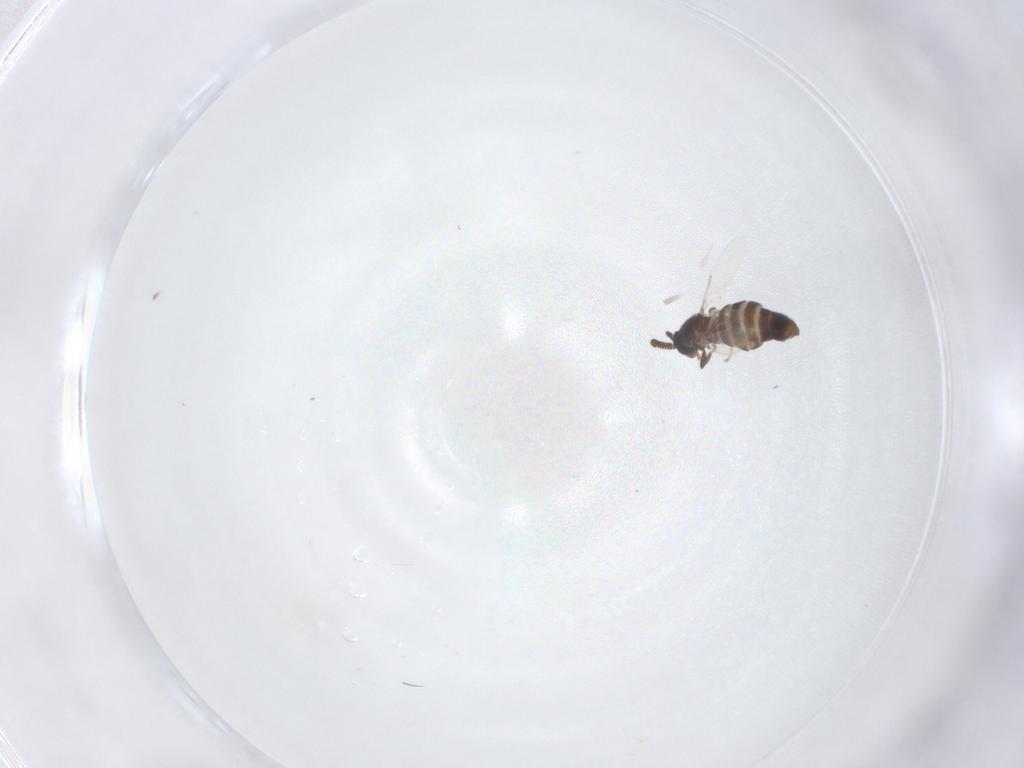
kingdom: Animalia
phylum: Arthropoda
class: Insecta
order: Diptera
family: Scatopsidae
